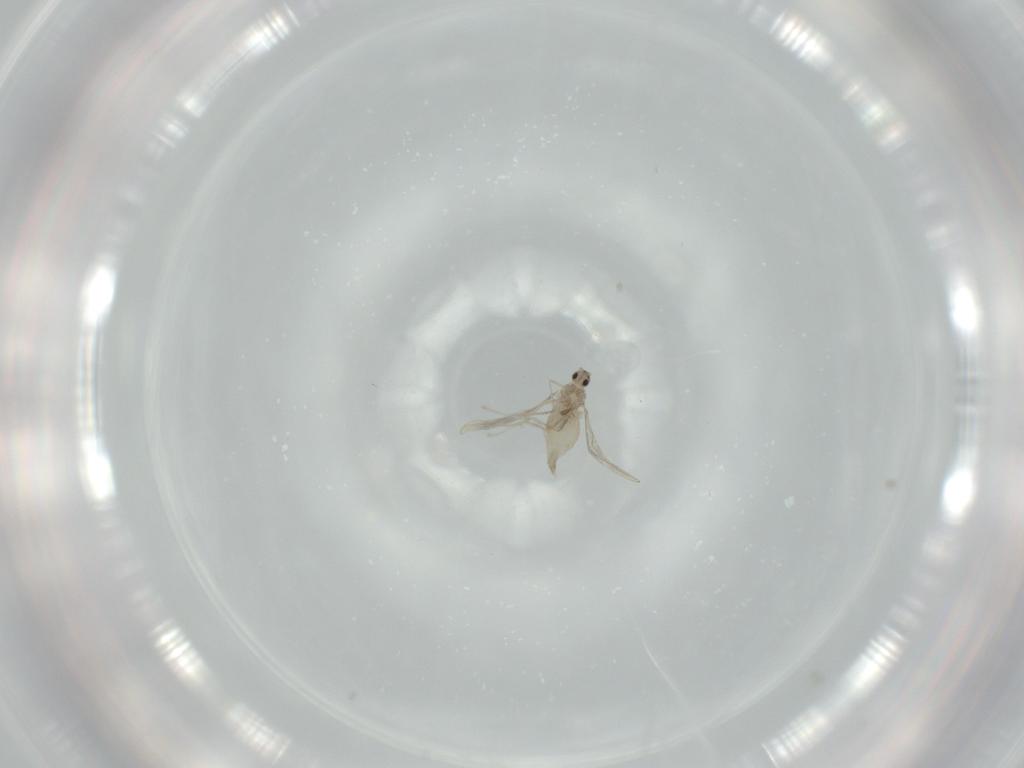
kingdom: Animalia
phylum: Arthropoda
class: Insecta
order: Diptera
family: Cecidomyiidae
